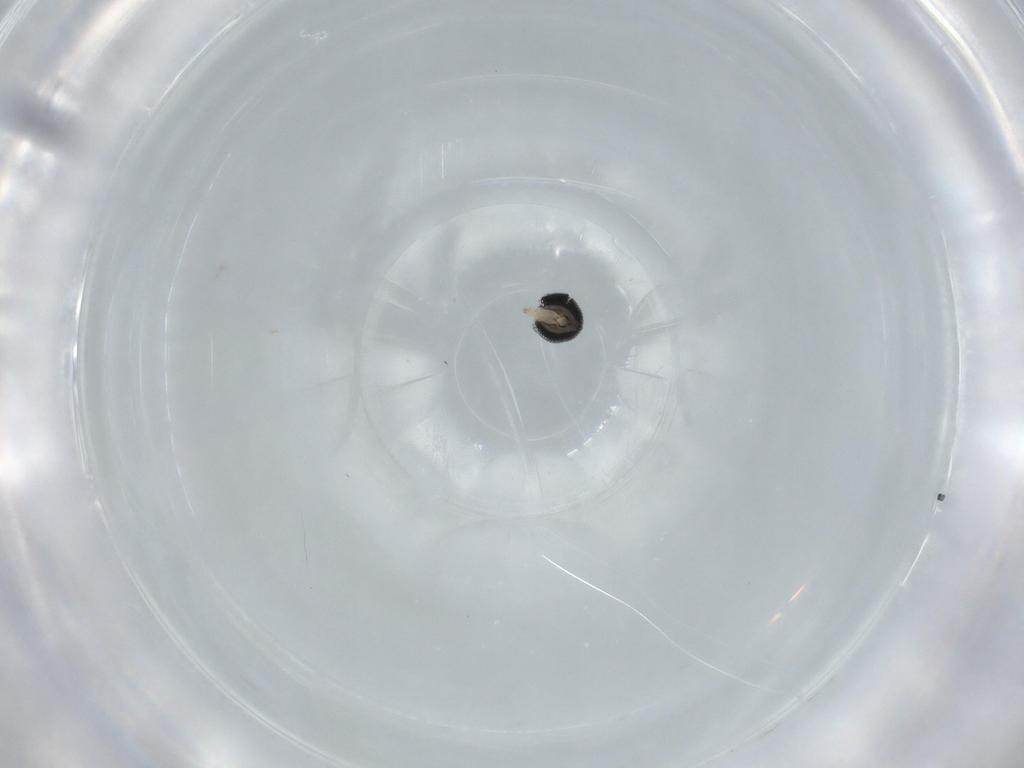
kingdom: Animalia
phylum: Arthropoda
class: Insecta
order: Diptera
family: Cecidomyiidae
